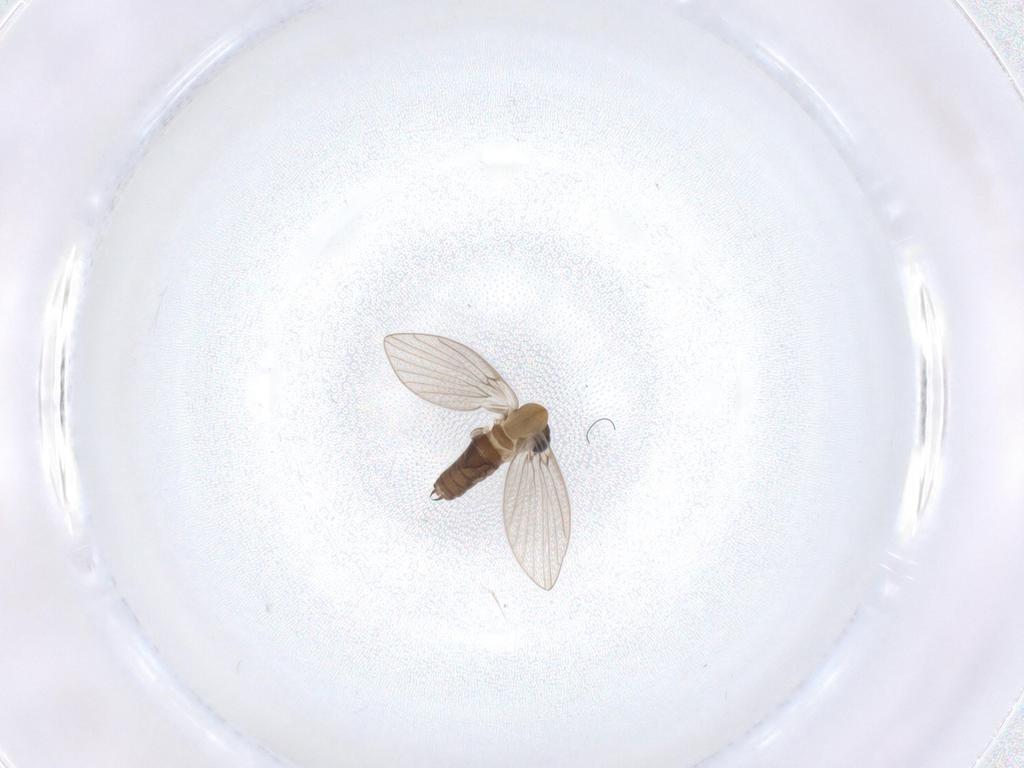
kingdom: Animalia
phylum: Arthropoda
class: Insecta
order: Diptera
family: Psychodidae
